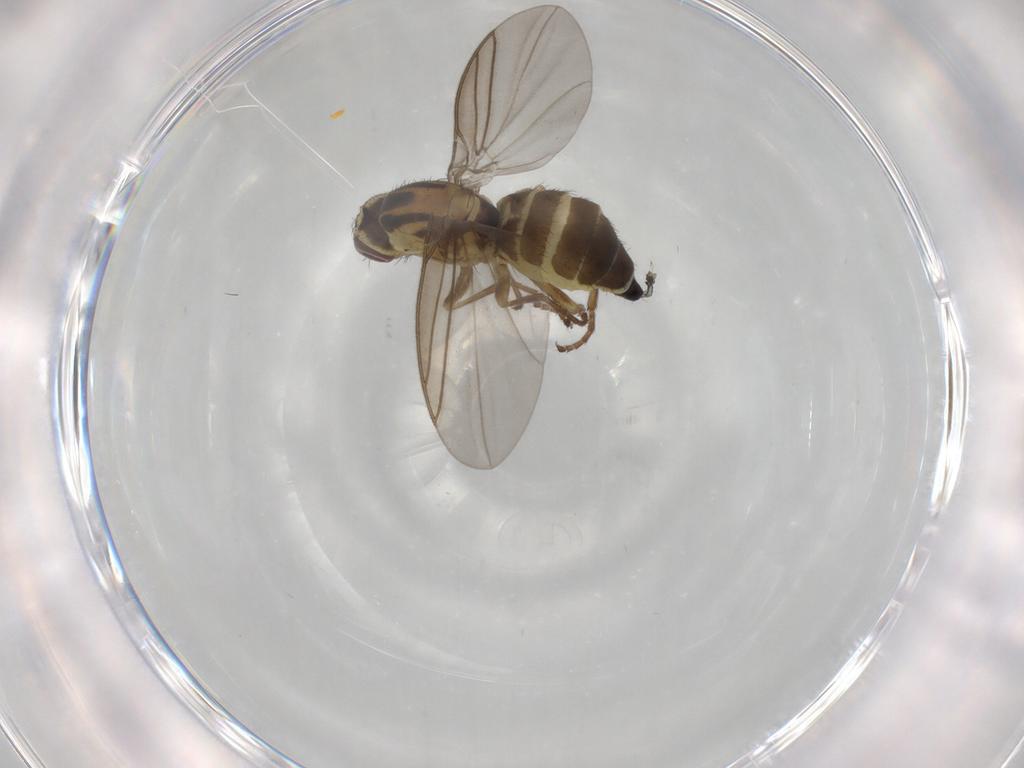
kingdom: Animalia
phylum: Arthropoda
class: Insecta
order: Diptera
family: Agromyzidae
